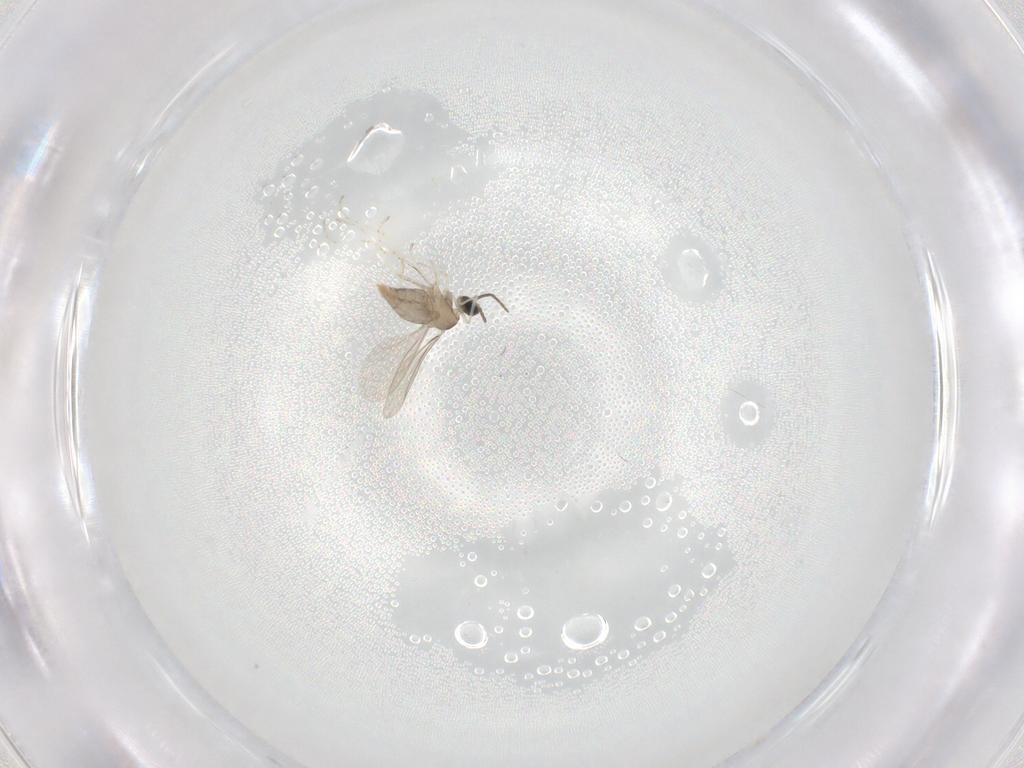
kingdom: Animalia
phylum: Arthropoda
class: Insecta
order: Diptera
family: Cecidomyiidae
